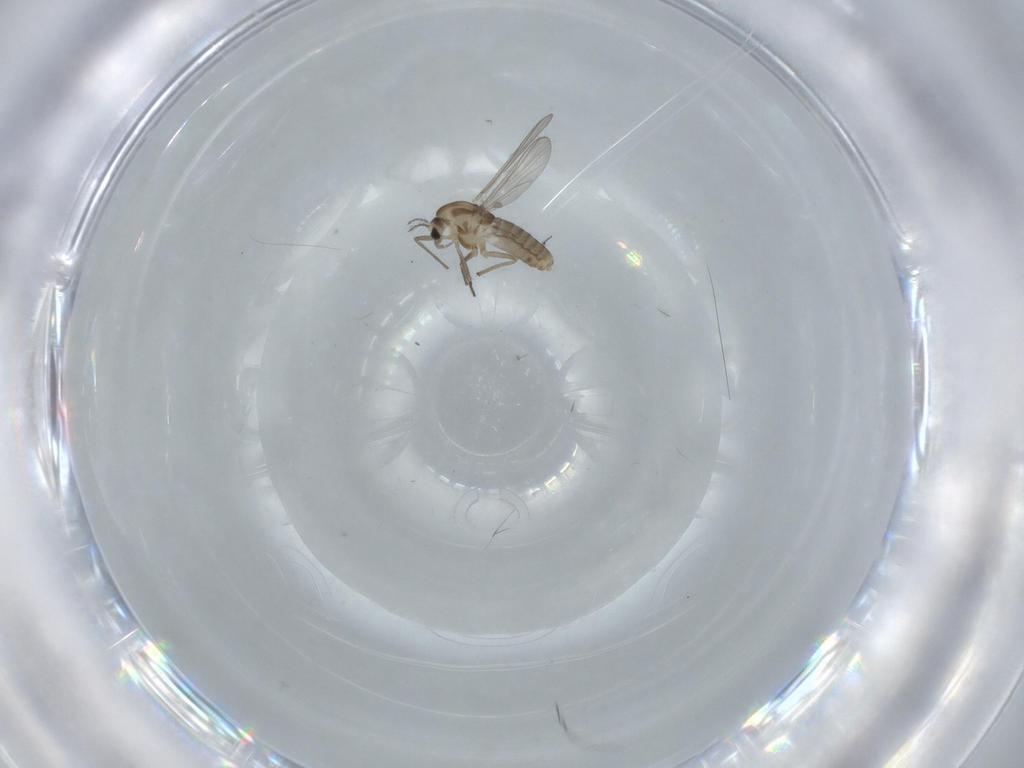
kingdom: Animalia
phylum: Arthropoda
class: Insecta
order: Diptera
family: Chironomidae
